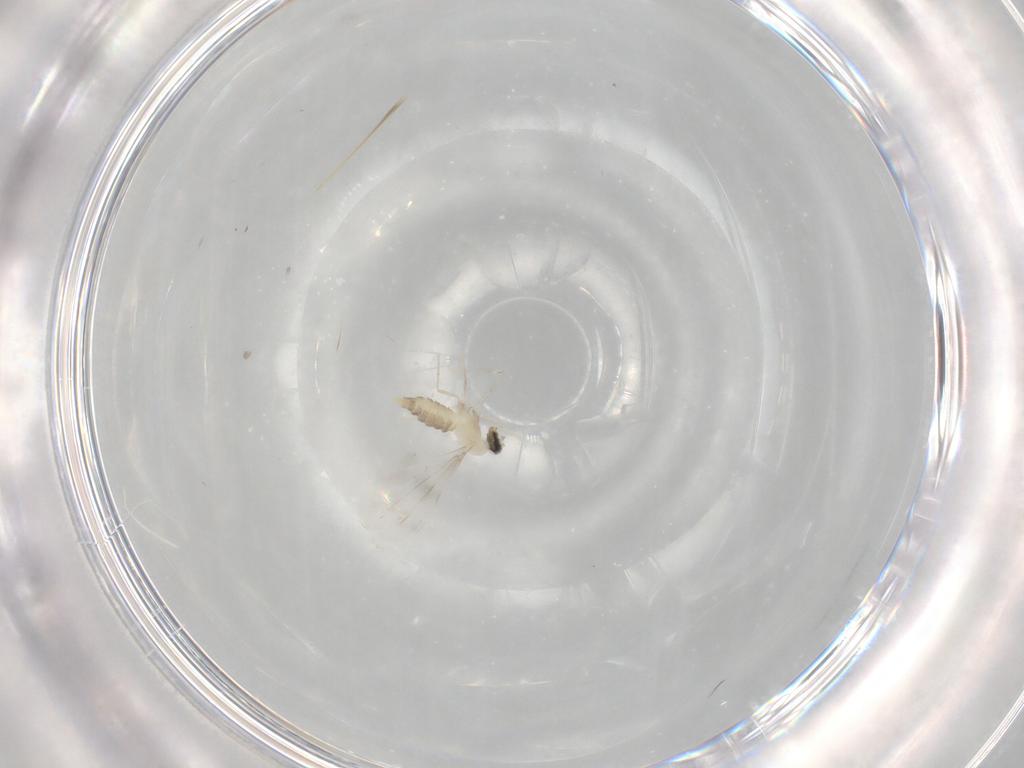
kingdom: Animalia
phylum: Arthropoda
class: Insecta
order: Diptera
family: Cecidomyiidae
